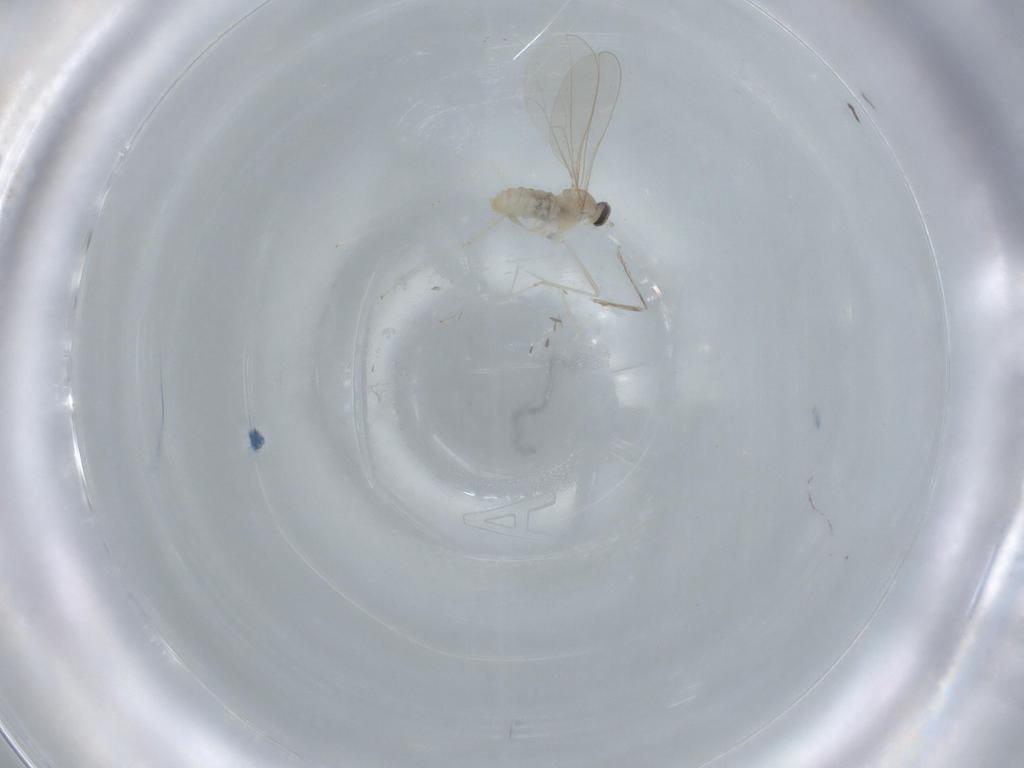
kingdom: Animalia
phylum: Arthropoda
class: Insecta
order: Diptera
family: Cecidomyiidae
